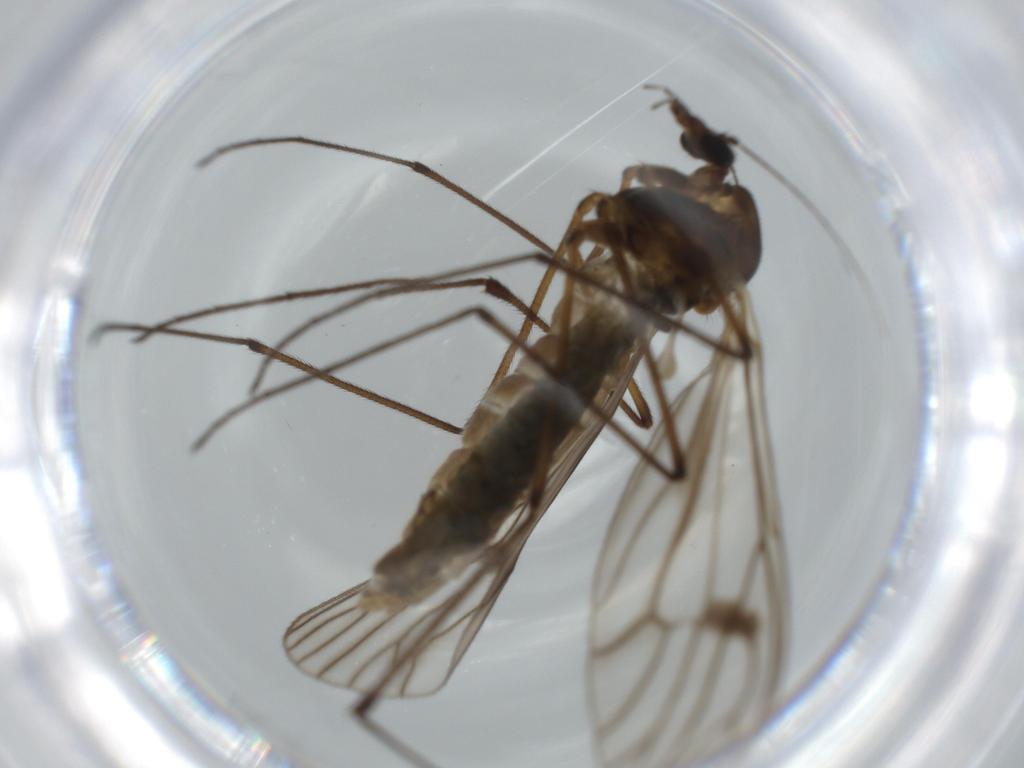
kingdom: Animalia
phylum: Arthropoda
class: Insecta
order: Diptera
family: Dixidae
